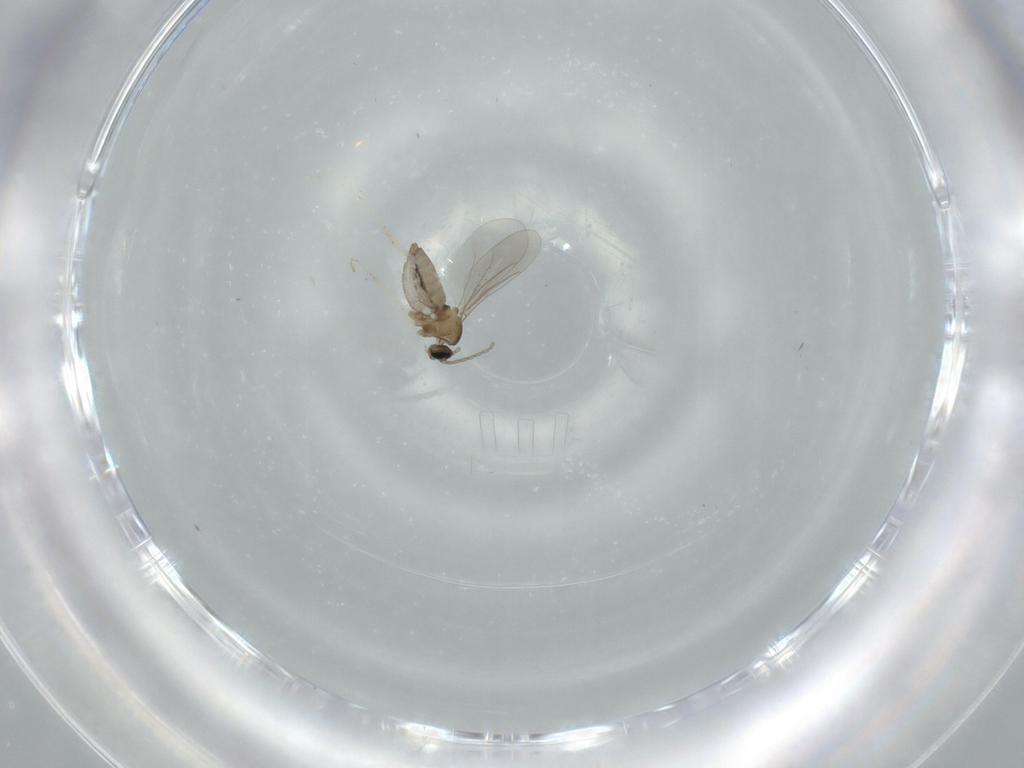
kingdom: Animalia
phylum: Arthropoda
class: Insecta
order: Diptera
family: Cecidomyiidae
